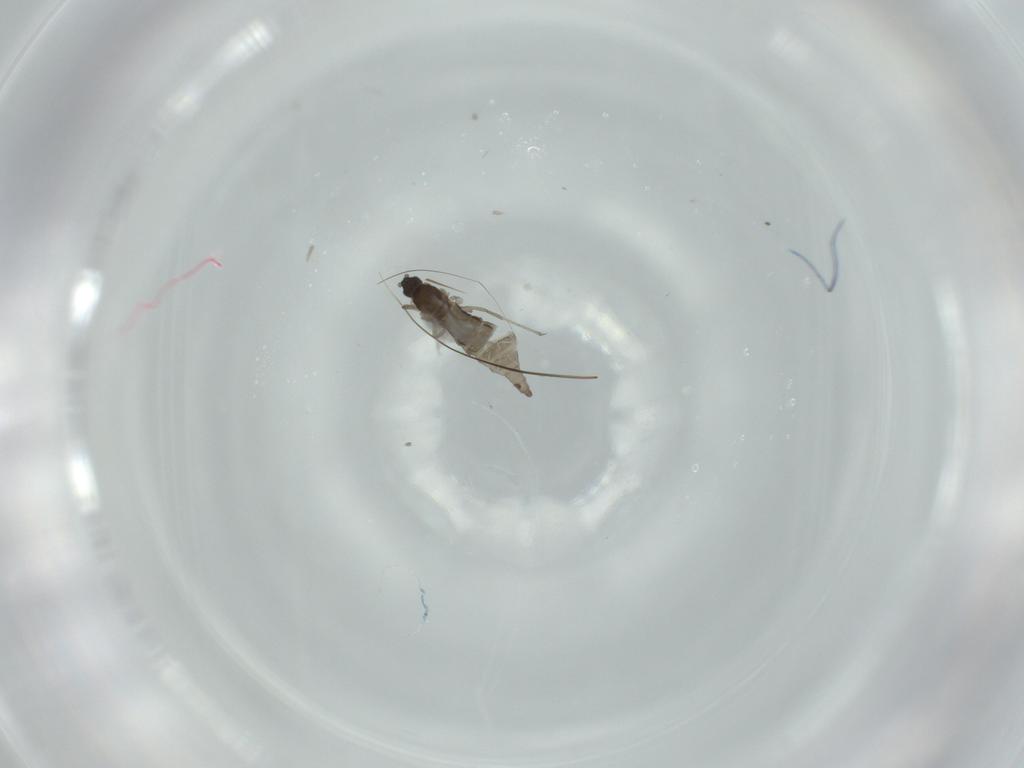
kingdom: Animalia
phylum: Arthropoda
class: Insecta
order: Diptera
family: Cecidomyiidae
